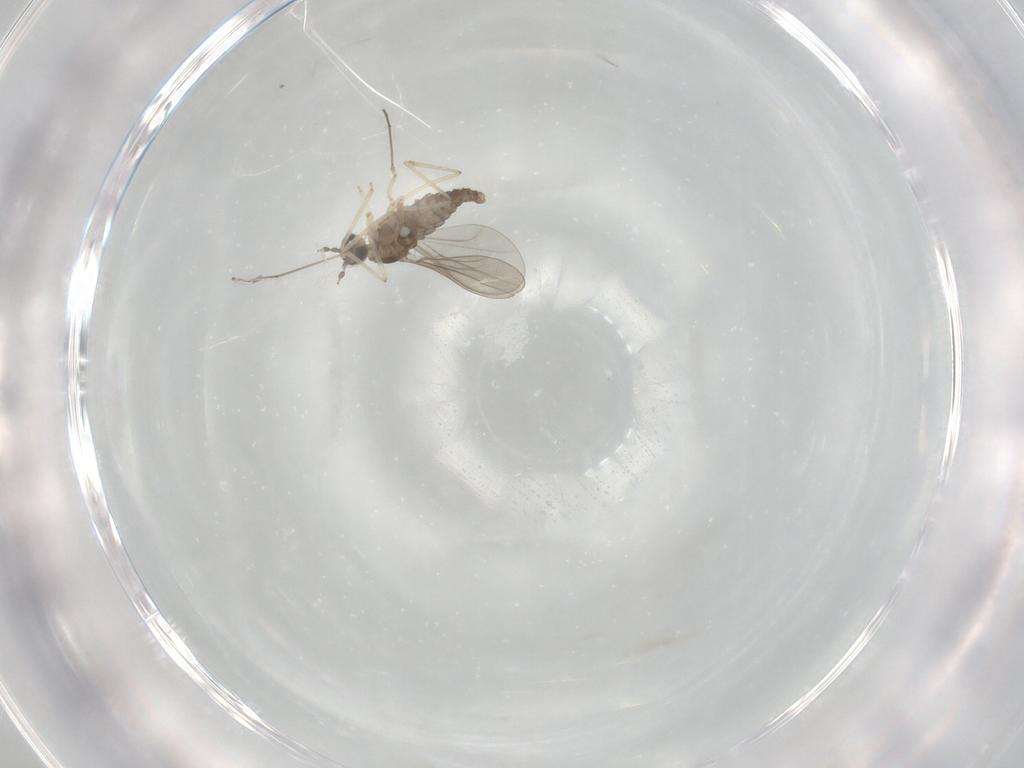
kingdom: Animalia
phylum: Arthropoda
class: Insecta
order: Diptera
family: Cecidomyiidae
